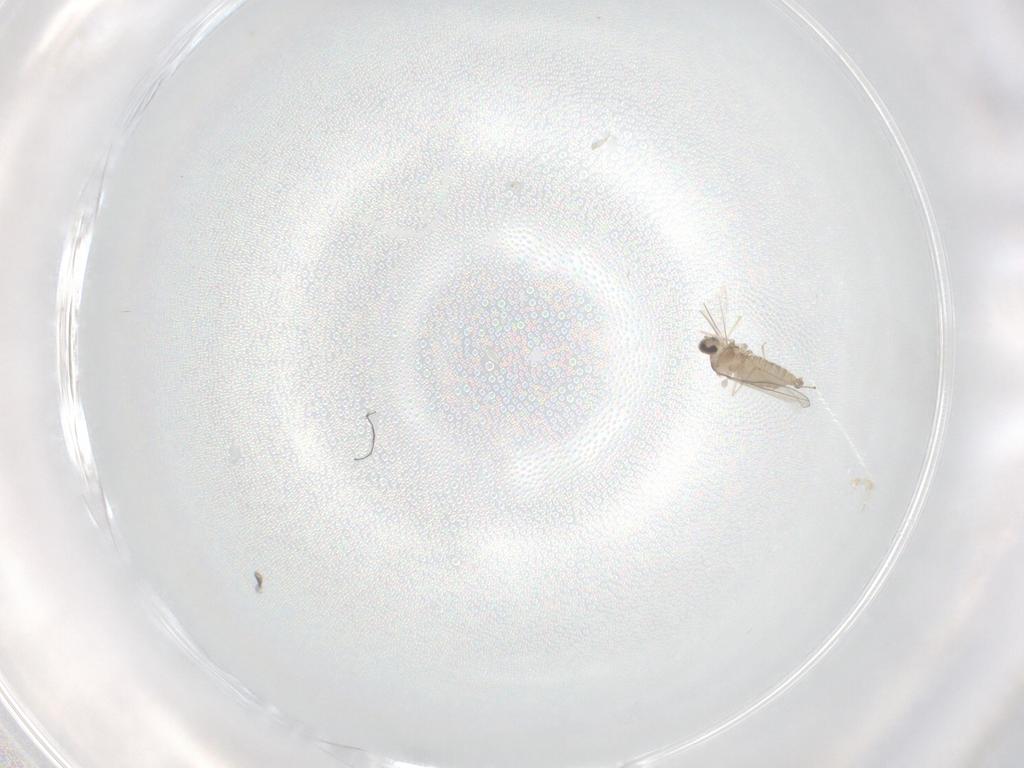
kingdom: Animalia
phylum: Arthropoda
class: Insecta
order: Diptera
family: Cecidomyiidae
